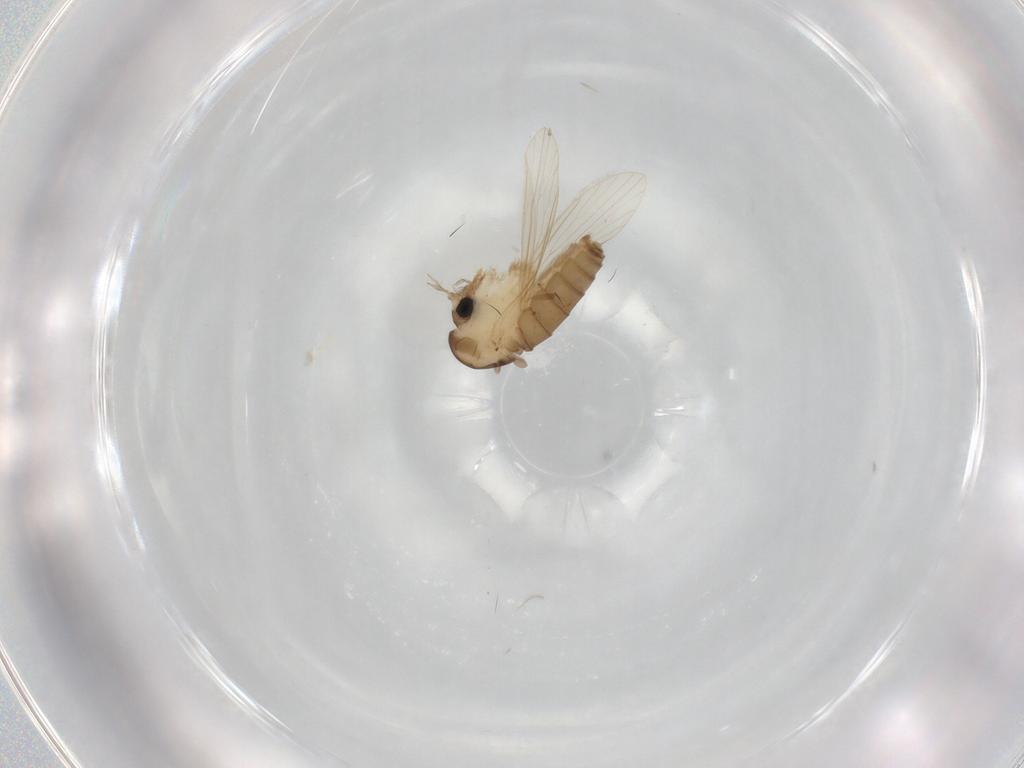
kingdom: Animalia
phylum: Arthropoda
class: Insecta
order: Diptera
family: Psychodidae
